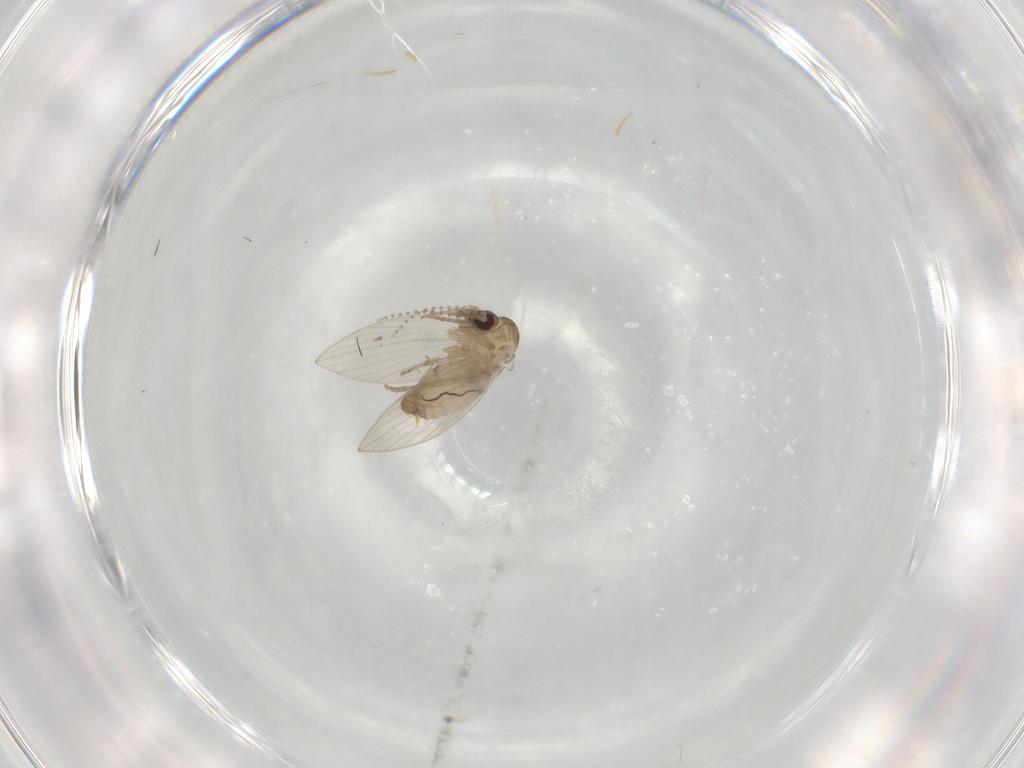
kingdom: Animalia
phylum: Arthropoda
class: Insecta
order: Diptera
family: Psychodidae
